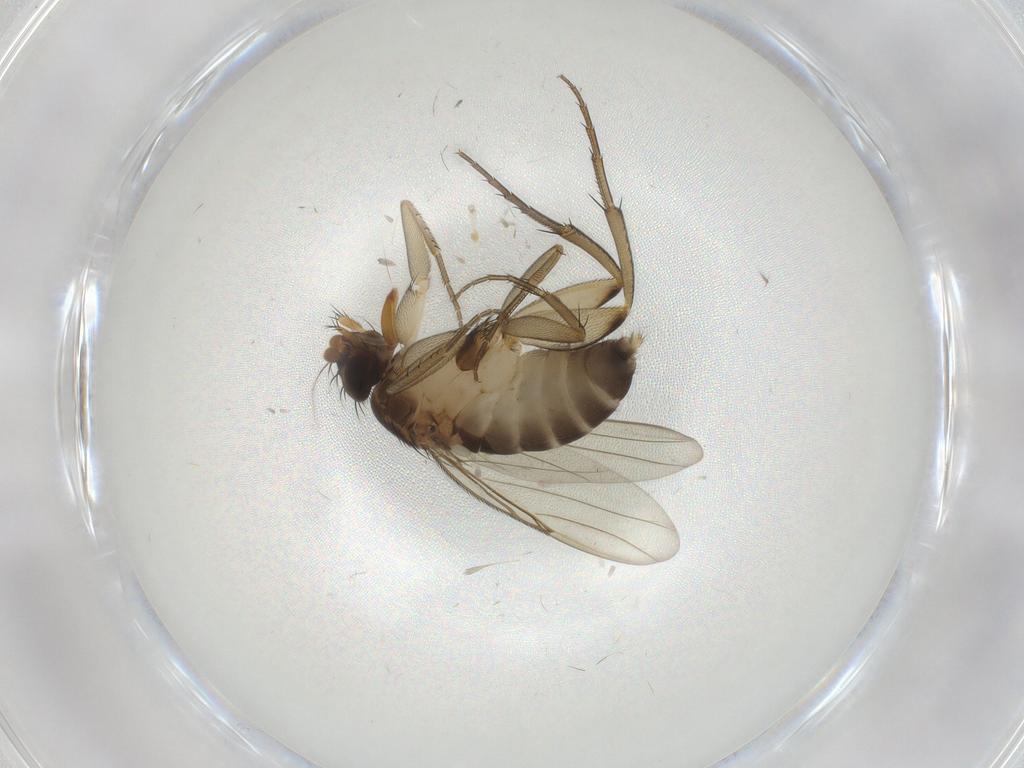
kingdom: Animalia
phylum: Arthropoda
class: Insecta
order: Diptera
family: Phoridae
